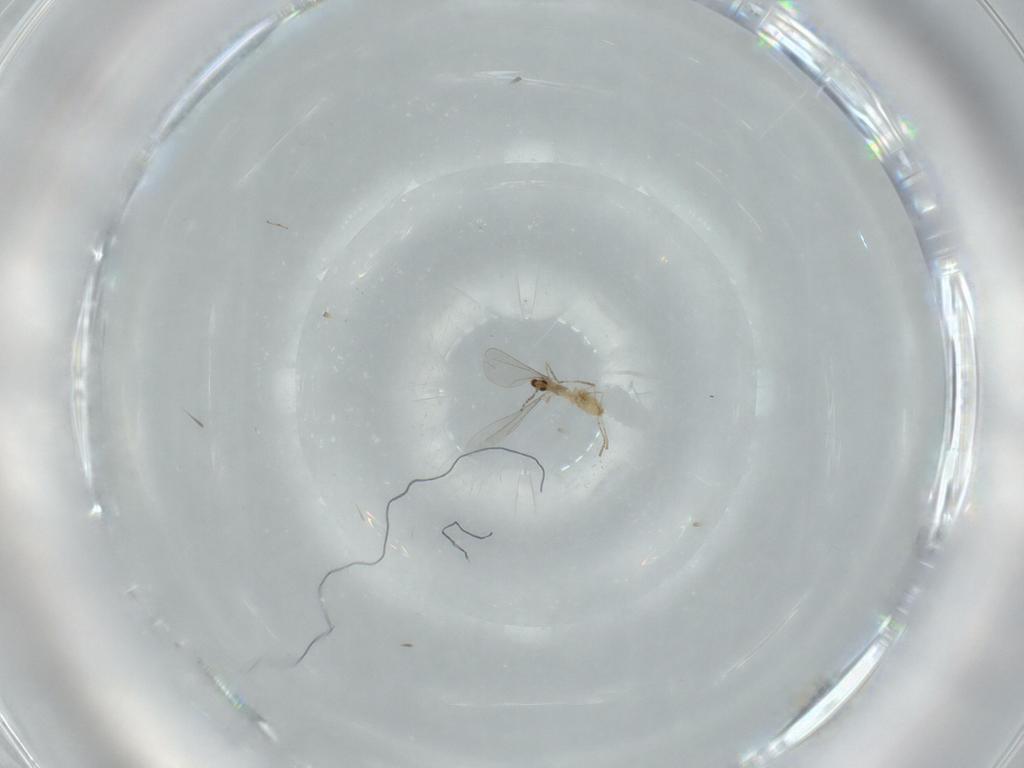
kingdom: Animalia
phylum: Arthropoda
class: Insecta
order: Diptera
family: Cecidomyiidae
